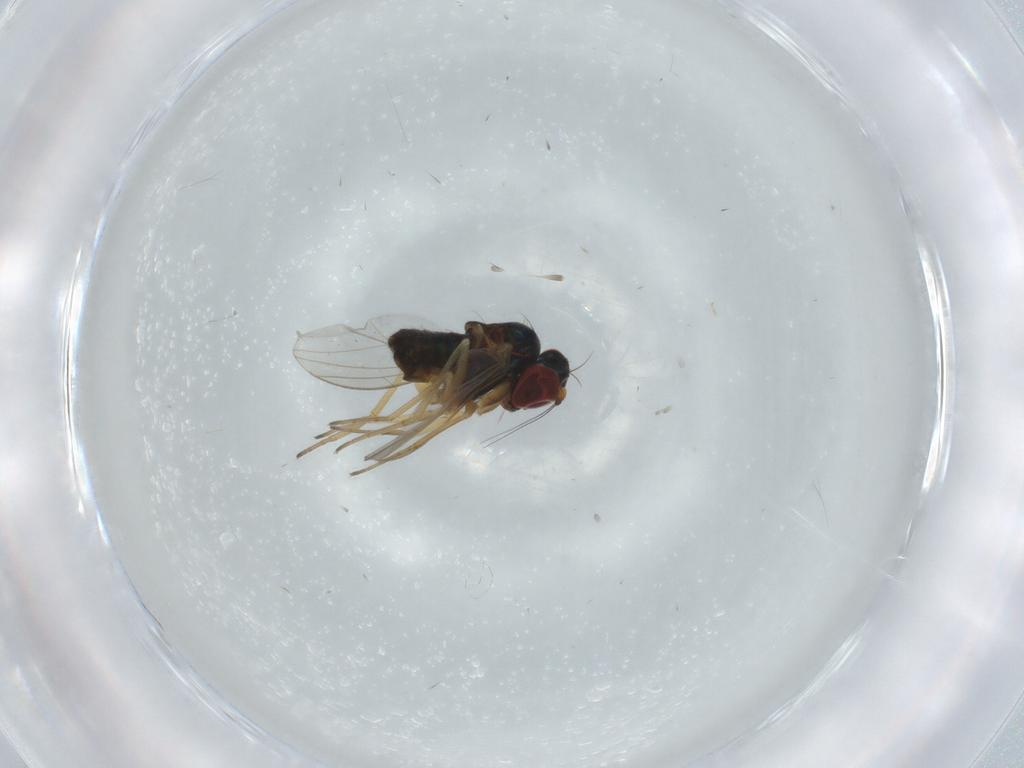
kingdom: Animalia
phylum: Arthropoda
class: Insecta
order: Diptera
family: Dolichopodidae
